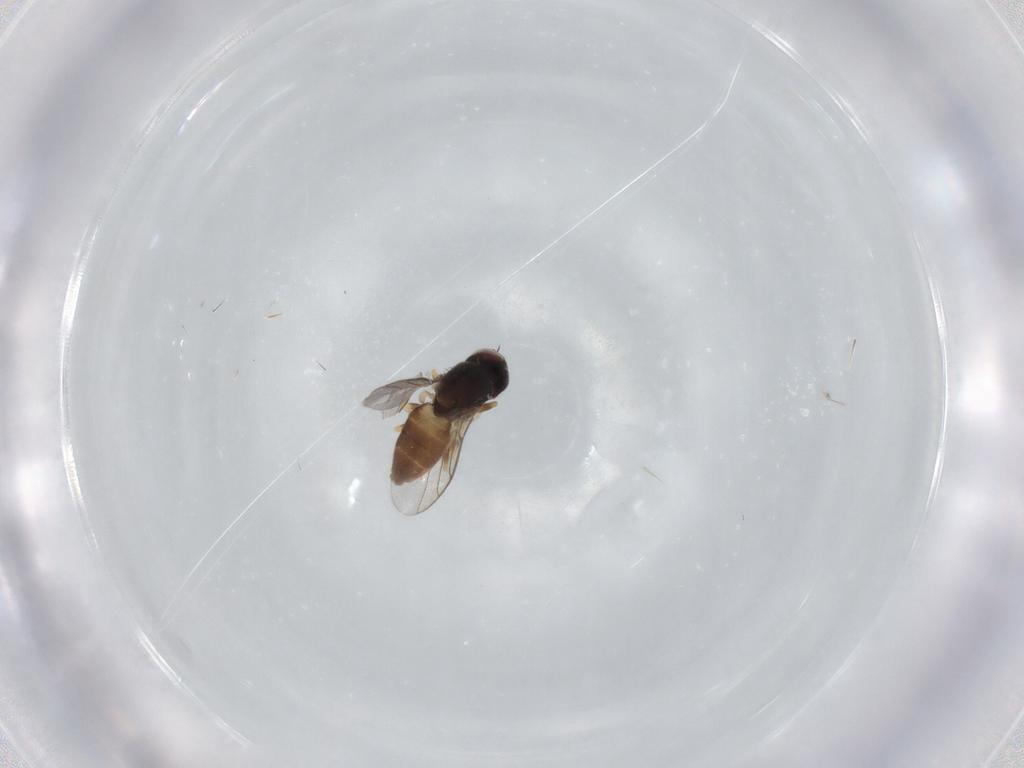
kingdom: Animalia
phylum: Arthropoda
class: Insecta
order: Diptera
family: Chloropidae
